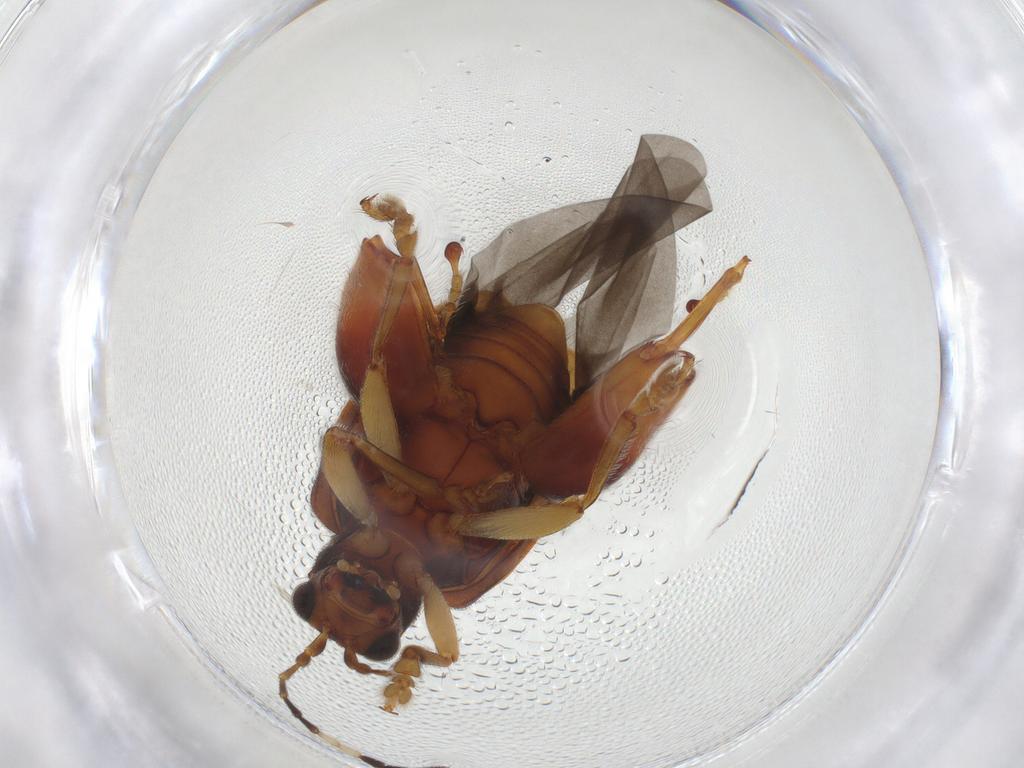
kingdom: Animalia
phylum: Arthropoda
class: Insecta
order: Coleoptera
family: Chrysomelidae
